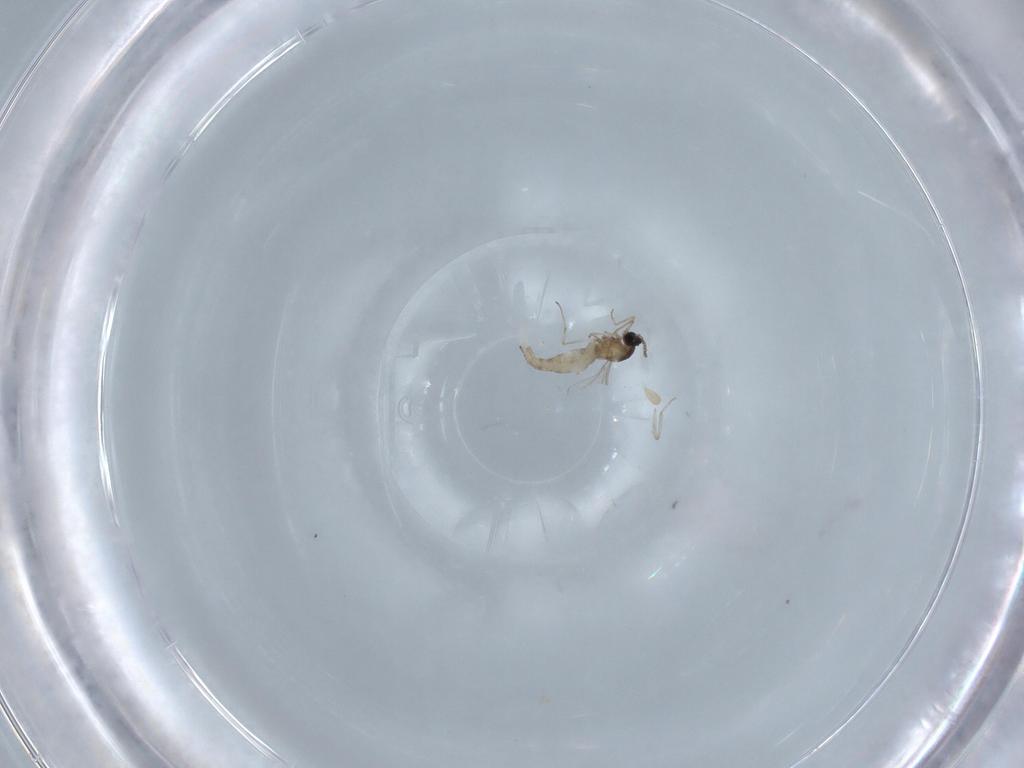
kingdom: Animalia
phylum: Arthropoda
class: Insecta
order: Diptera
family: Cecidomyiidae
